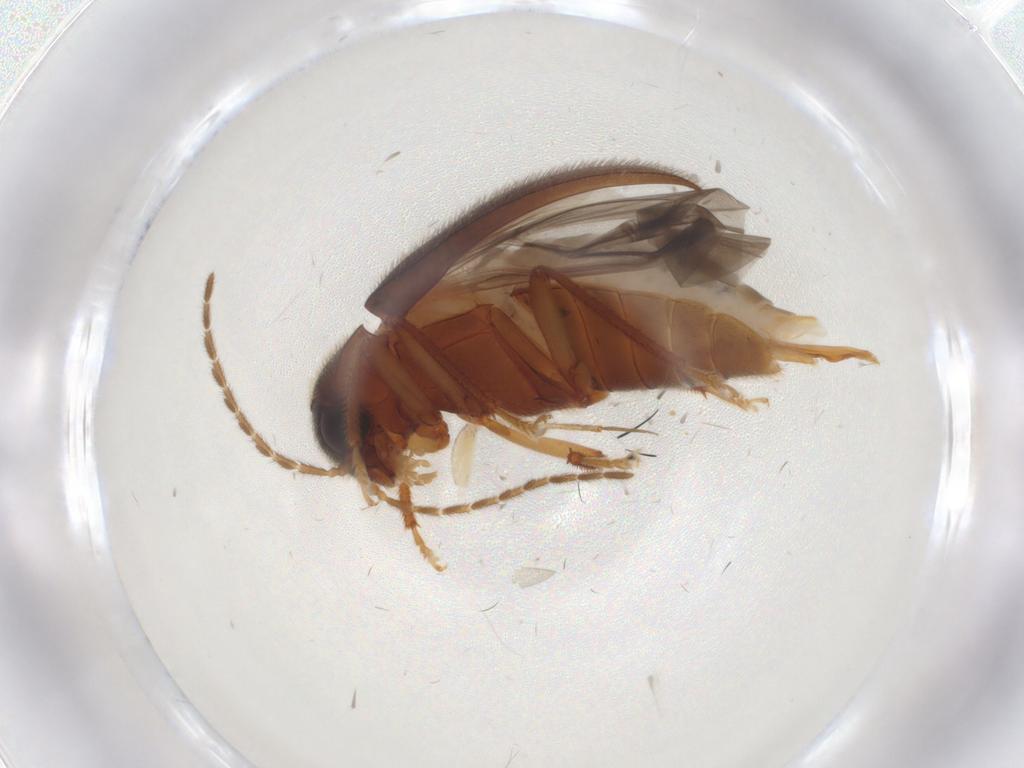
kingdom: Animalia
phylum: Arthropoda
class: Insecta
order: Coleoptera
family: Ptilodactylidae
